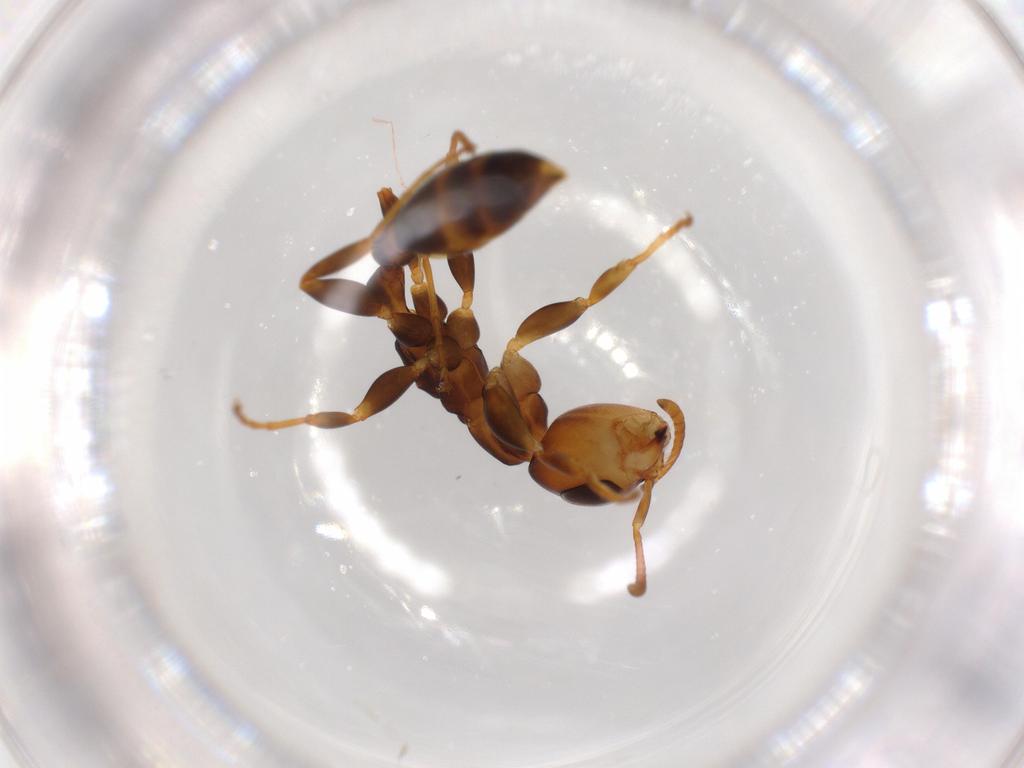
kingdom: Animalia
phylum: Arthropoda
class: Insecta
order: Hymenoptera
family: Formicidae
